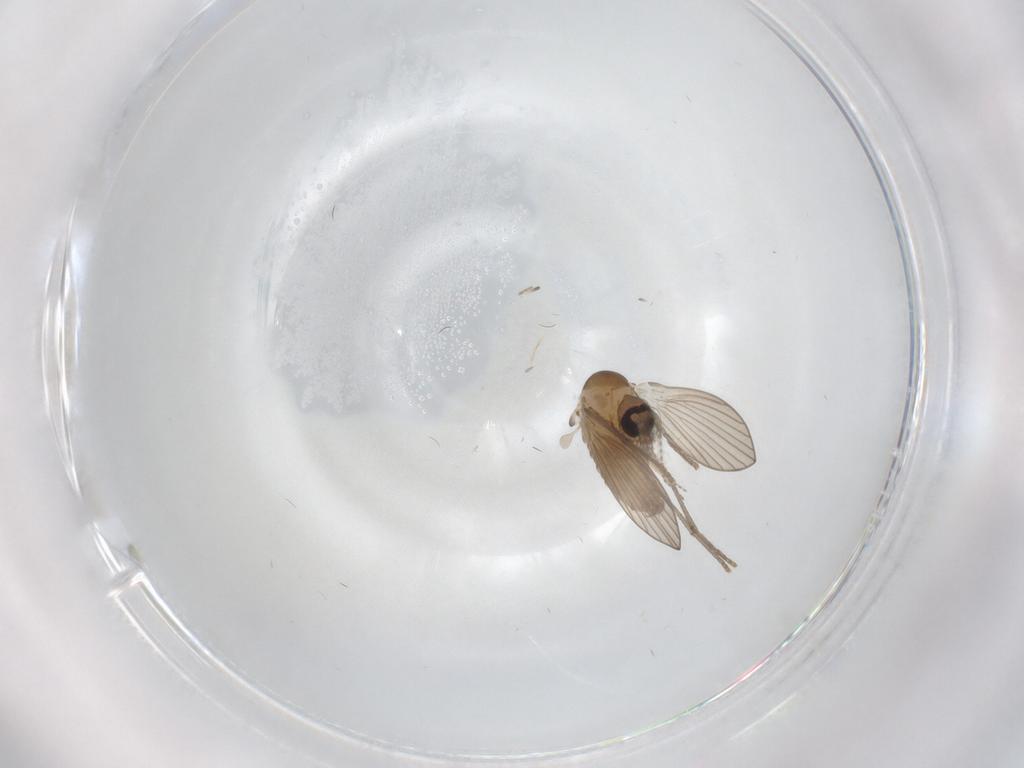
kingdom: Animalia
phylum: Arthropoda
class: Insecta
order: Diptera
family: Psychodidae
